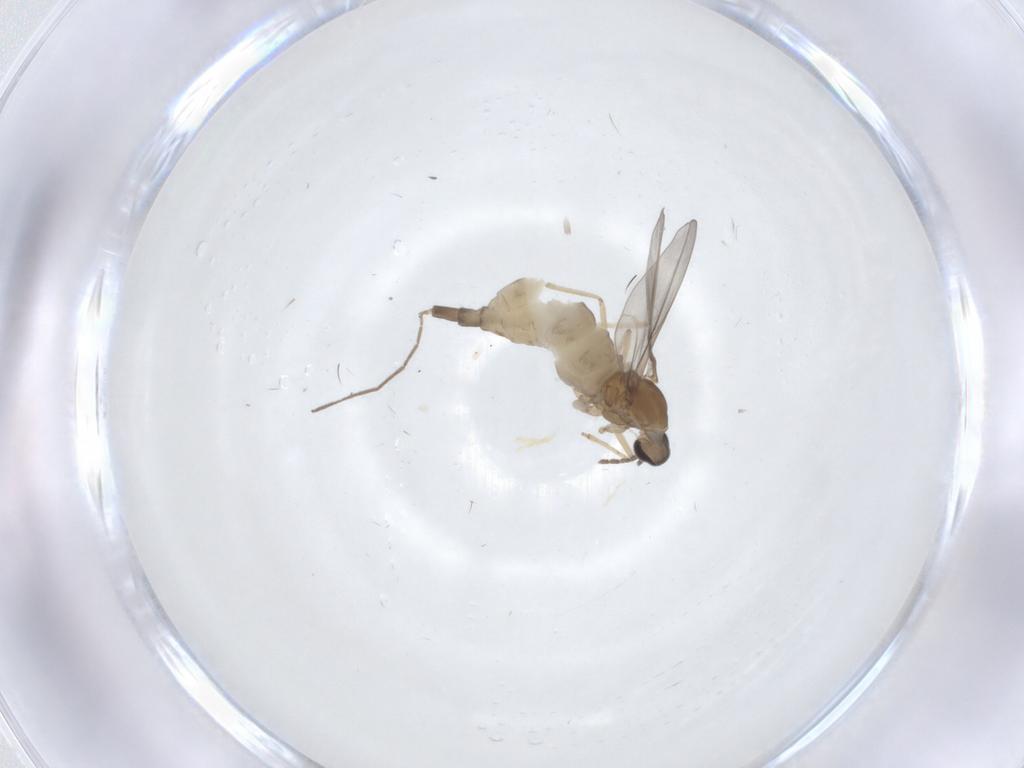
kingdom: Animalia
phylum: Arthropoda
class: Insecta
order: Diptera
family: Cecidomyiidae
